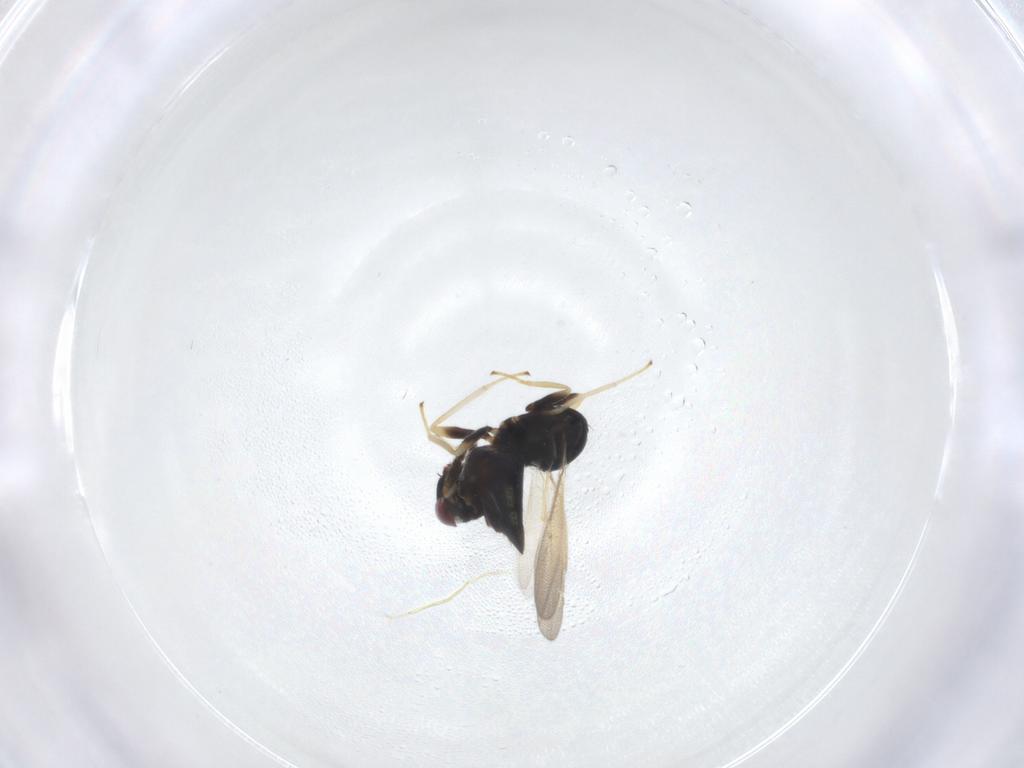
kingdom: Animalia
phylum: Arthropoda
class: Insecta
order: Hymenoptera
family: Eulophidae
